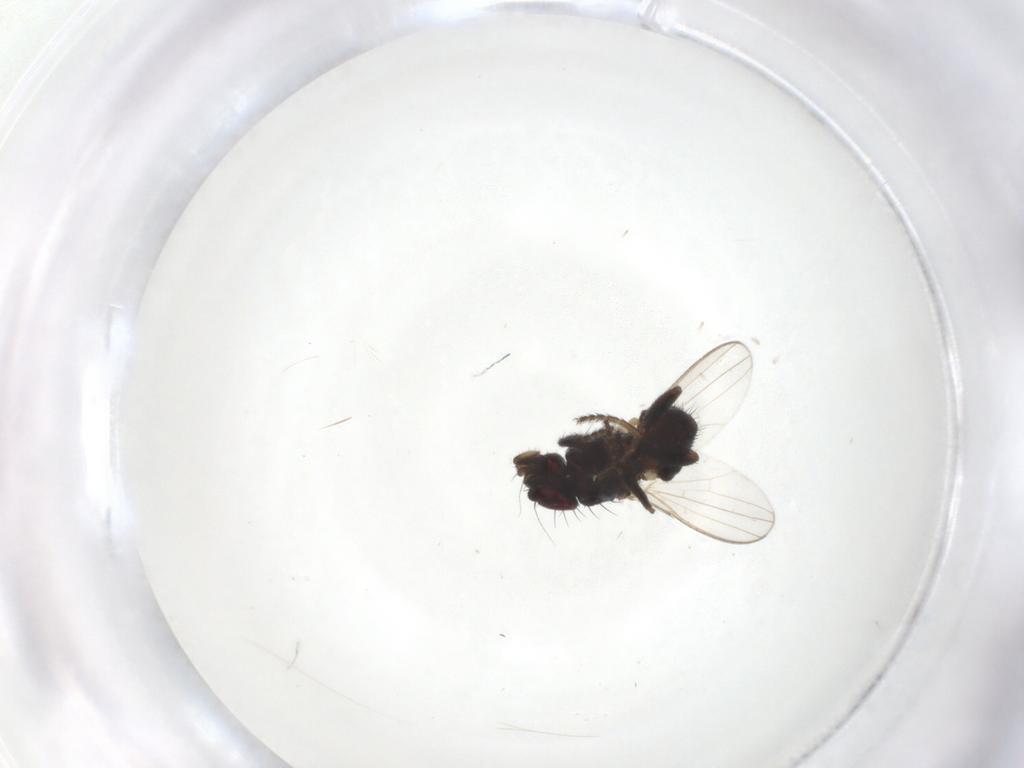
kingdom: Animalia
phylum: Arthropoda
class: Insecta
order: Diptera
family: Milichiidae
